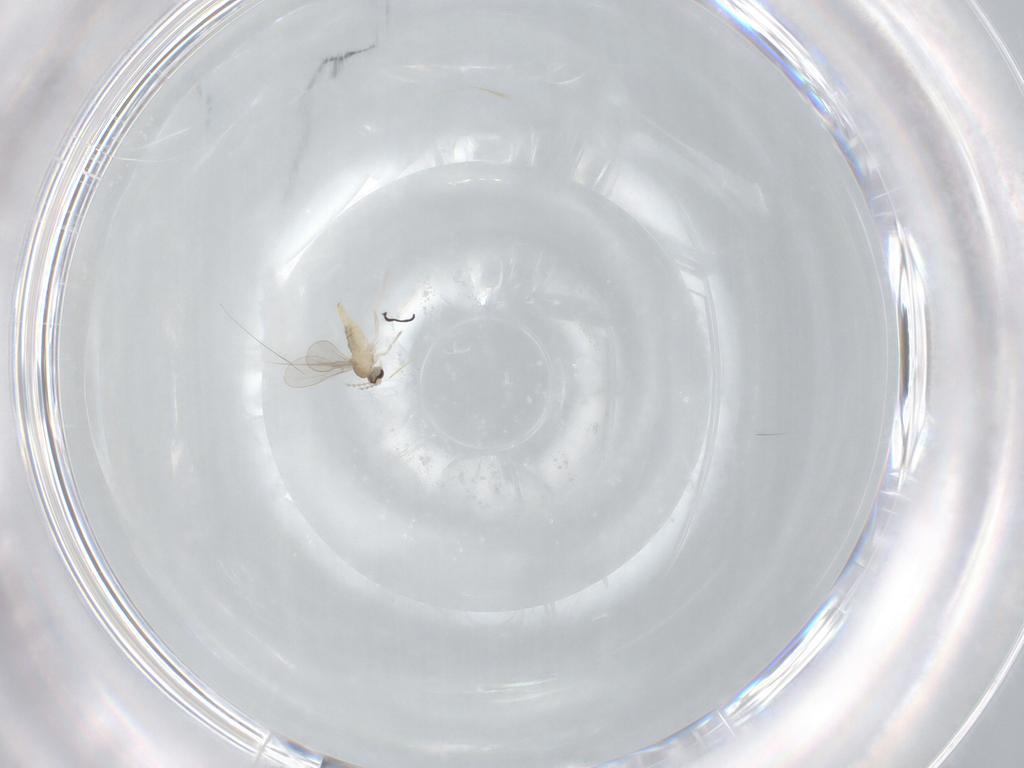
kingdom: Animalia
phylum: Arthropoda
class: Insecta
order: Diptera
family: Cecidomyiidae
